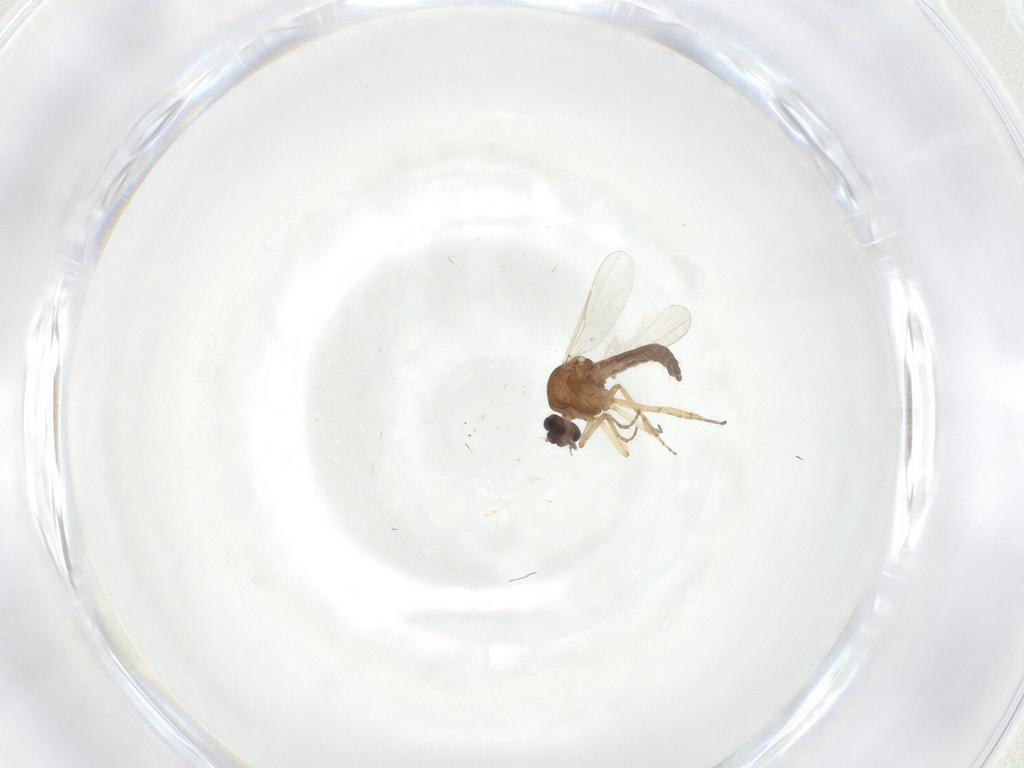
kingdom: Animalia
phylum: Arthropoda
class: Insecta
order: Diptera
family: Ceratopogonidae
